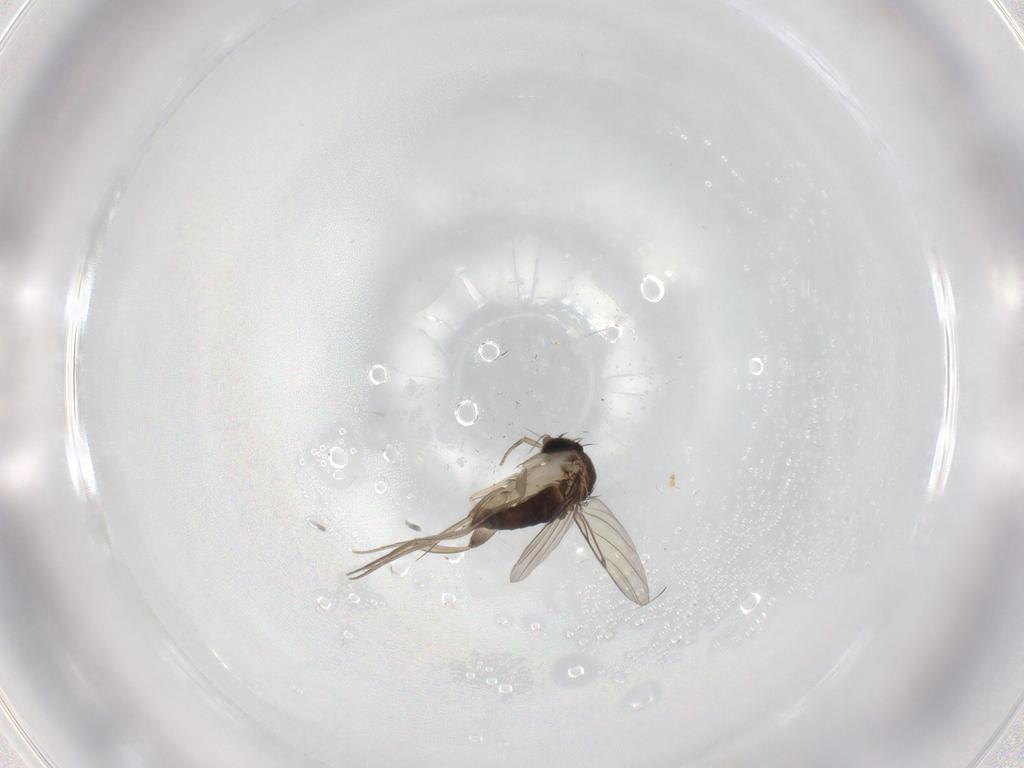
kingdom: Animalia
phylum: Arthropoda
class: Insecta
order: Diptera
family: Phoridae
